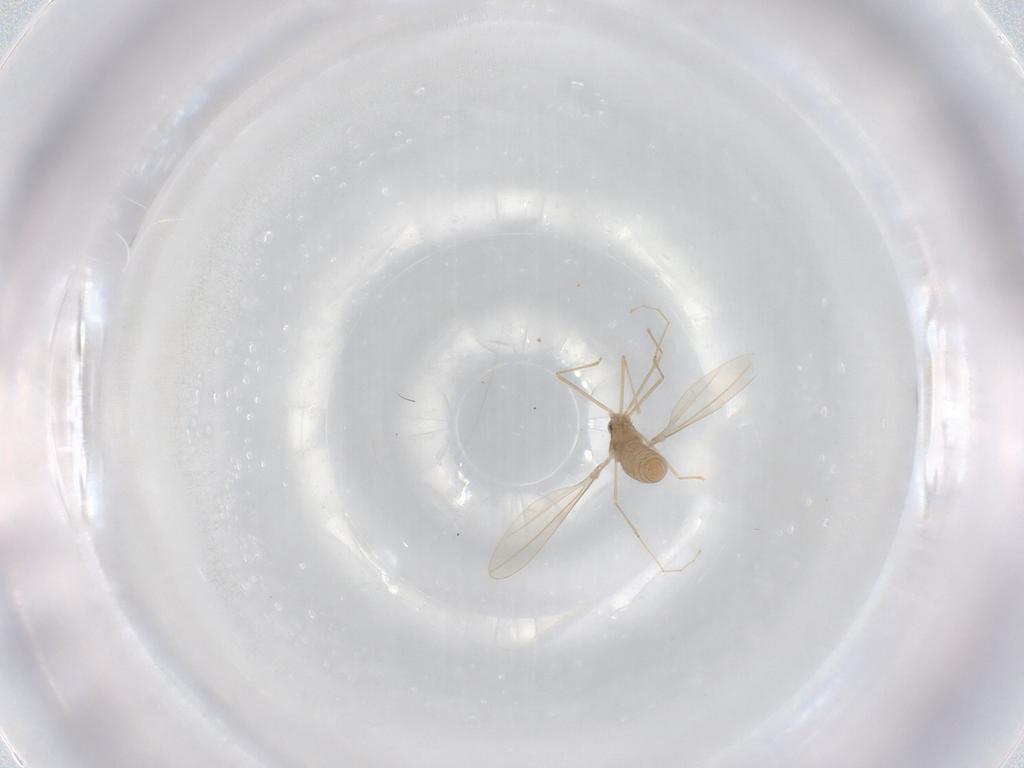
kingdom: Animalia
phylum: Arthropoda
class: Insecta
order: Diptera
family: Cecidomyiidae
